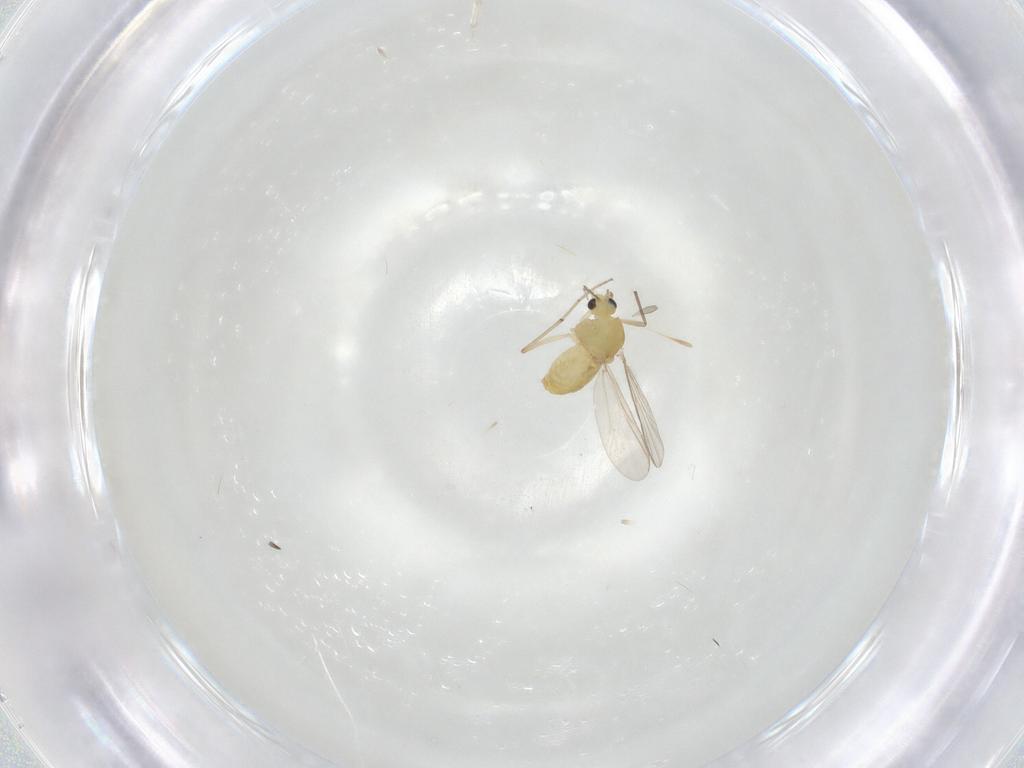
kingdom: Animalia
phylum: Arthropoda
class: Insecta
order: Diptera
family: Chironomidae
